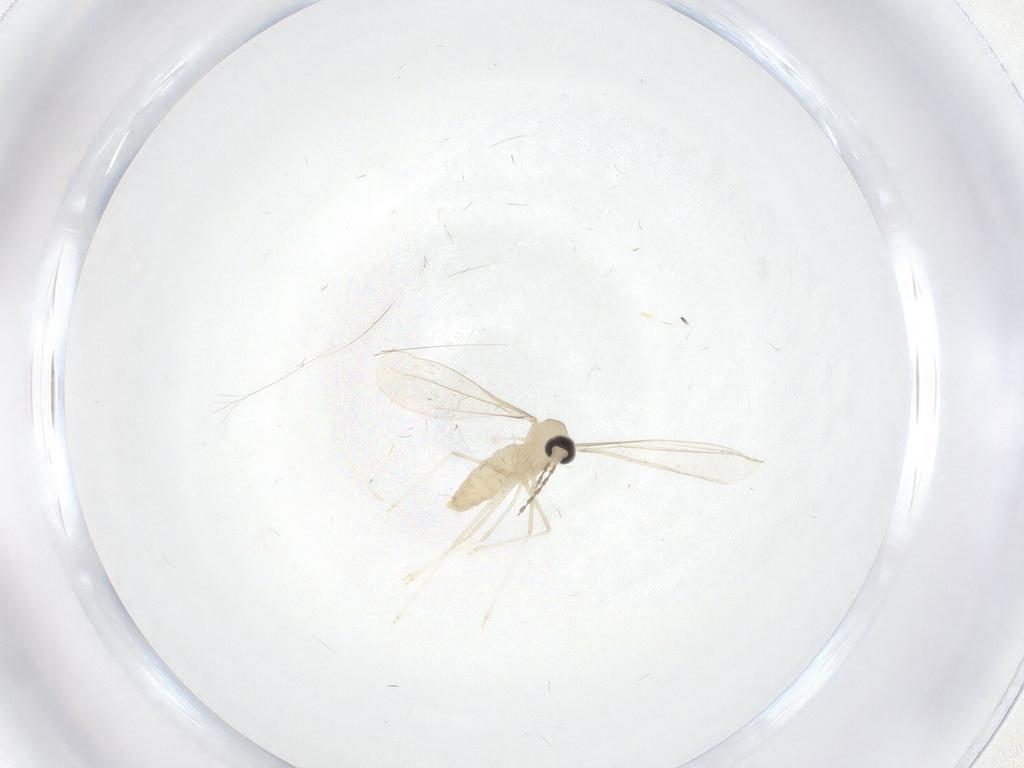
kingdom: Animalia
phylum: Arthropoda
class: Insecta
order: Diptera
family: Cecidomyiidae
